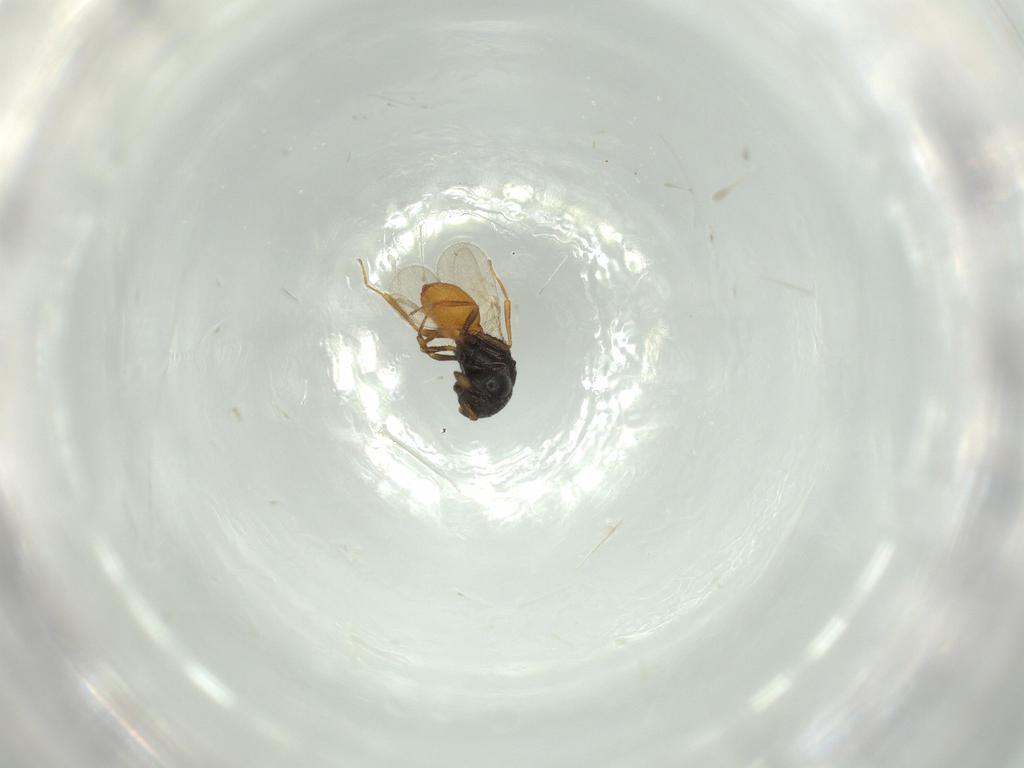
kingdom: Animalia
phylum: Arthropoda
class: Insecta
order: Hymenoptera
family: Scelionidae
